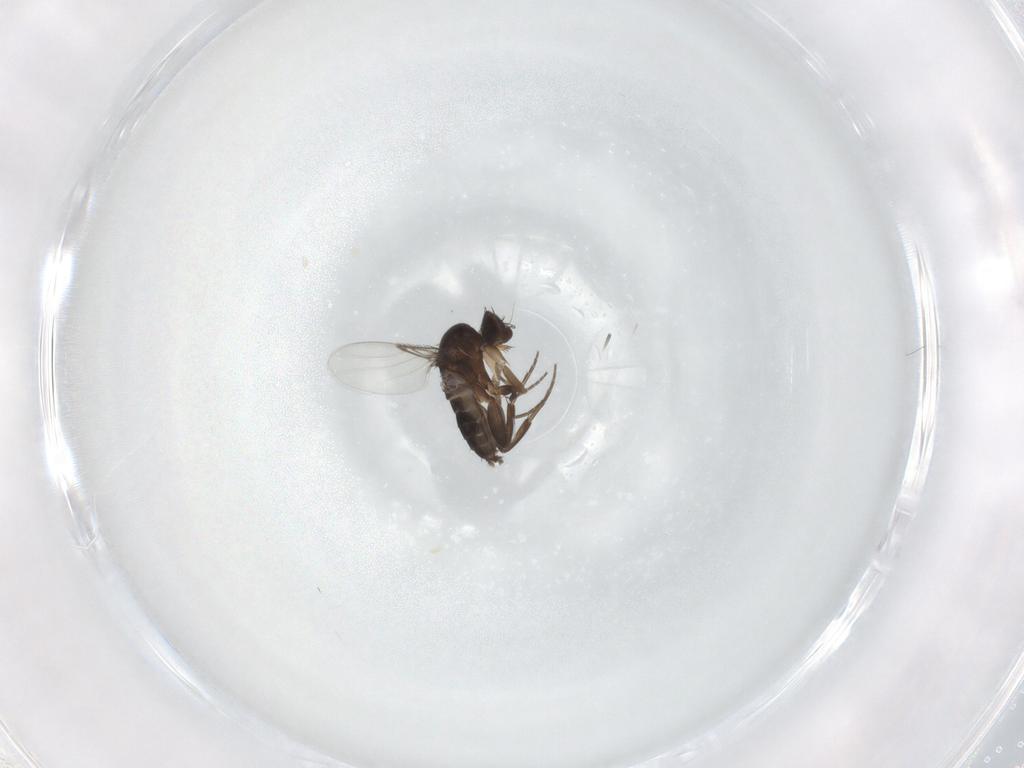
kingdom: Animalia
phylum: Arthropoda
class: Insecta
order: Diptera
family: Phoridae
